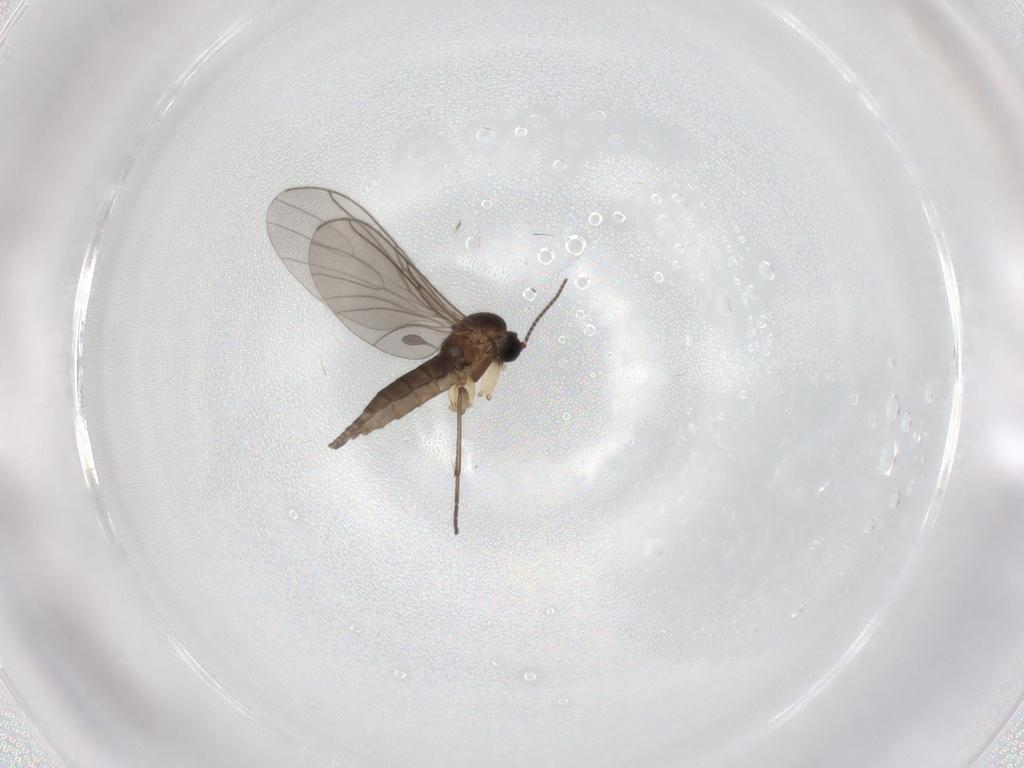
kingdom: Animalia
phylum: Arthropoda
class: Insecta
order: Diptera
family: Sciaridae
